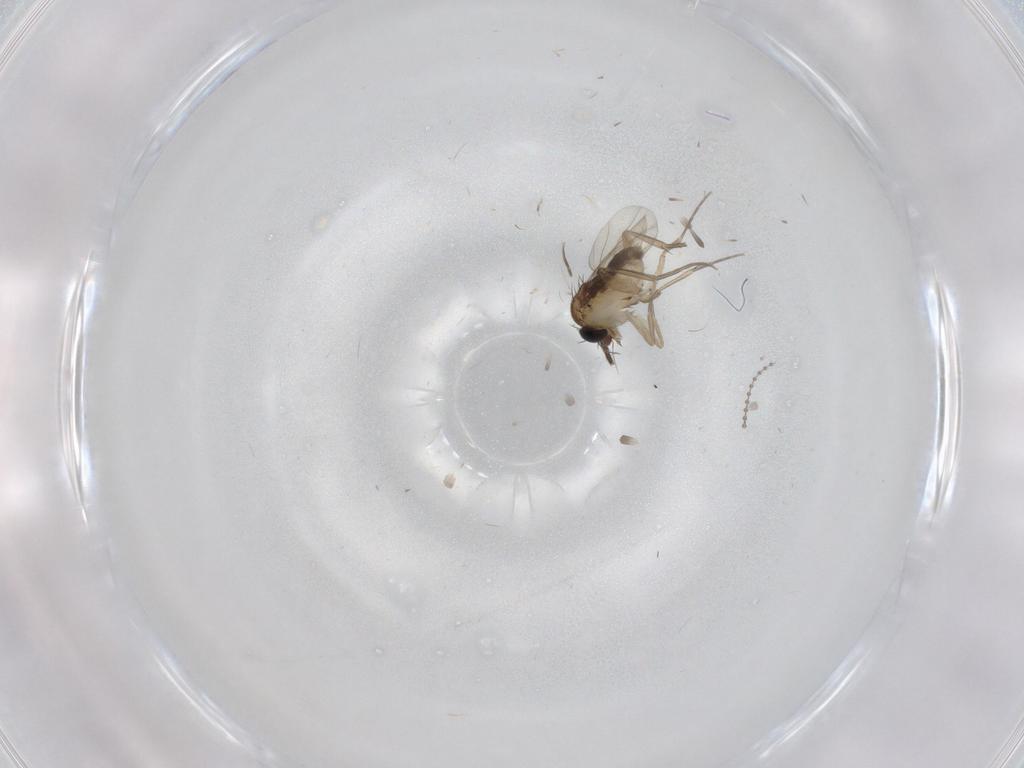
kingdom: Animalia
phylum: Arthropoda
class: Insecta
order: Diptera
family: Phoridae
